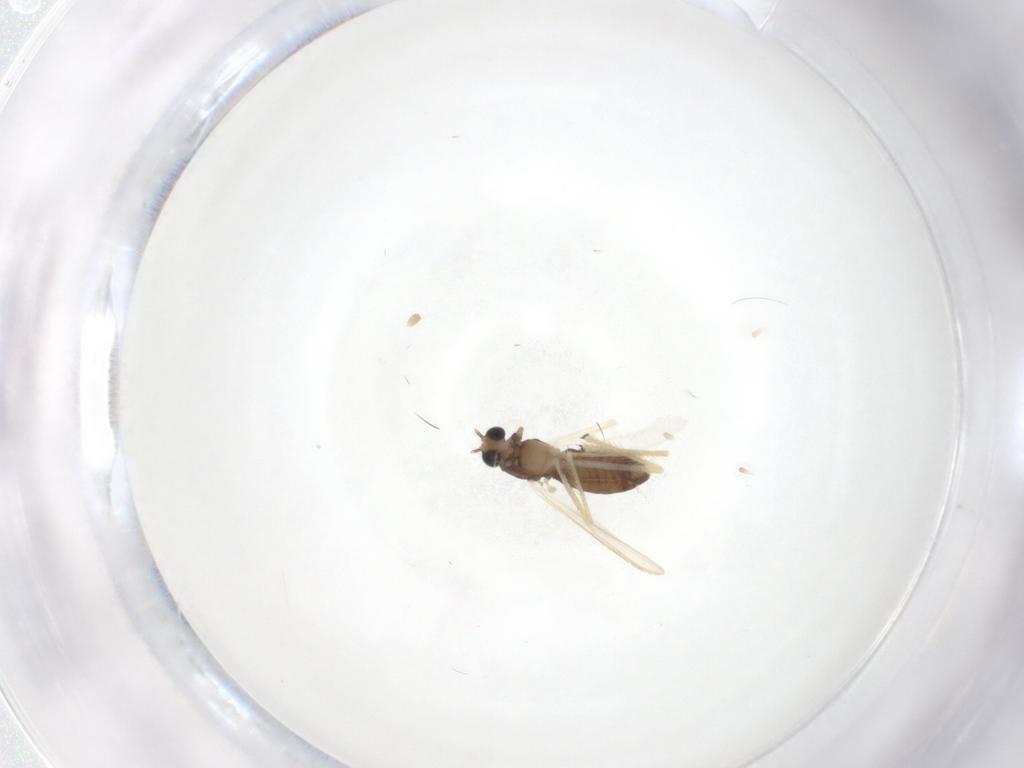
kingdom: Animalia
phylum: Arthropoda
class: Insecta
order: Diptera
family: Chironomidae
